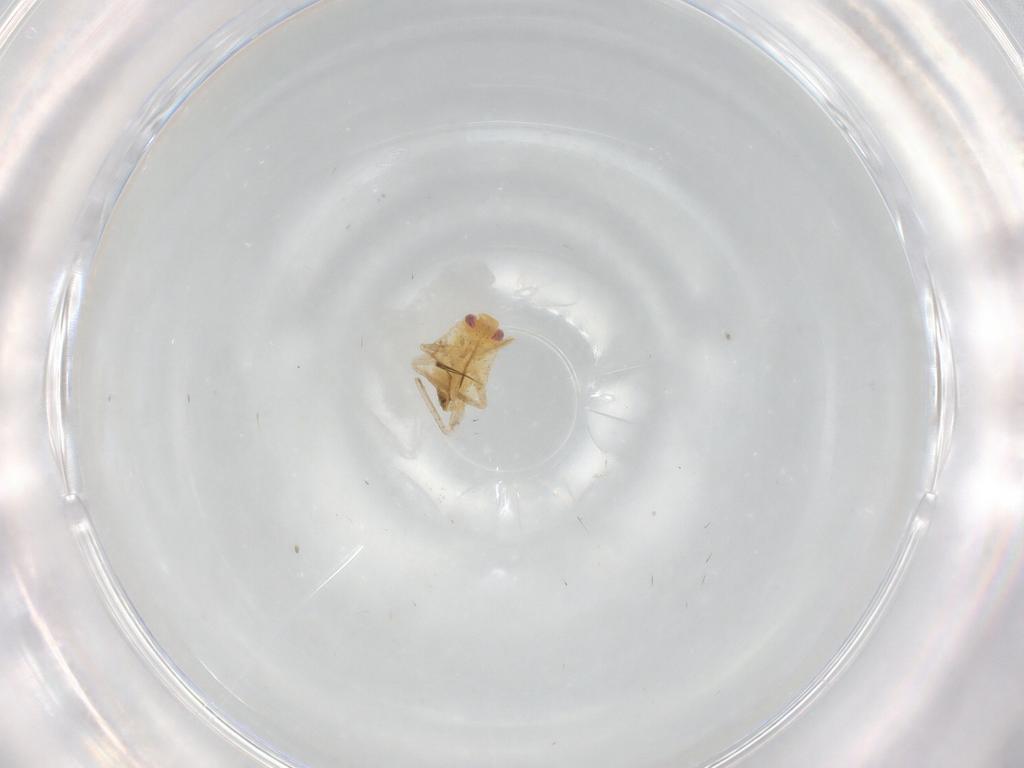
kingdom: Animalia
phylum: Arthropoda
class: Insecta
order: Hemiptera
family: Miridae
